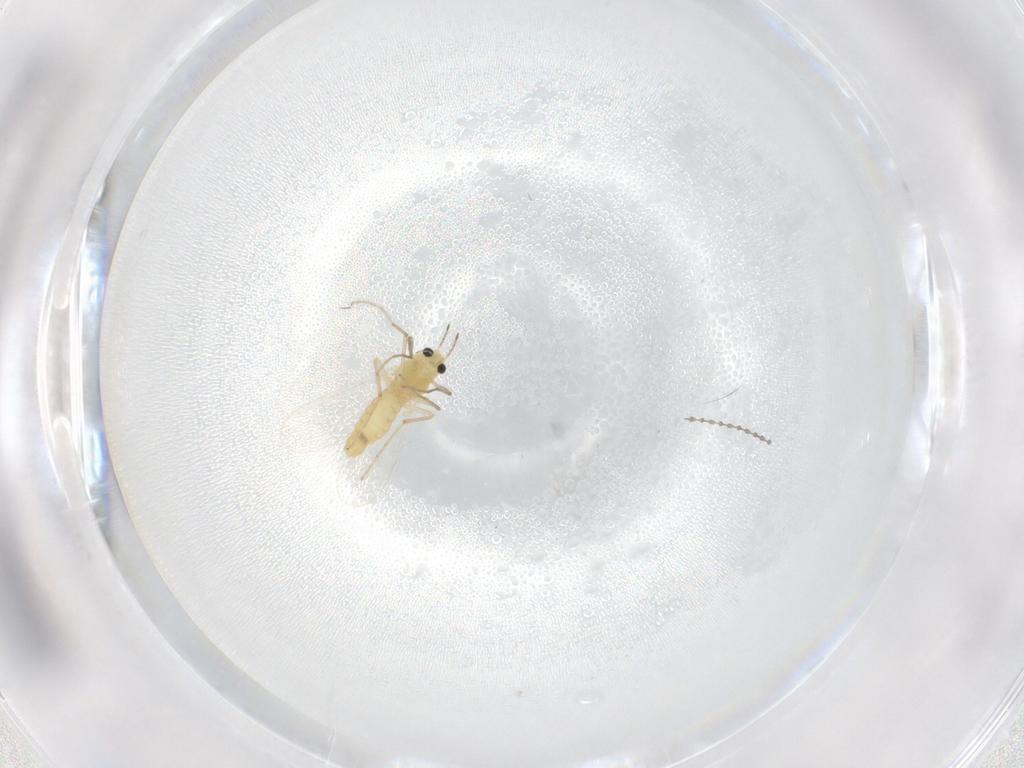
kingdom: Animalia
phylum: Arthropoda
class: Insecta
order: Diptera
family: Chironomidae
